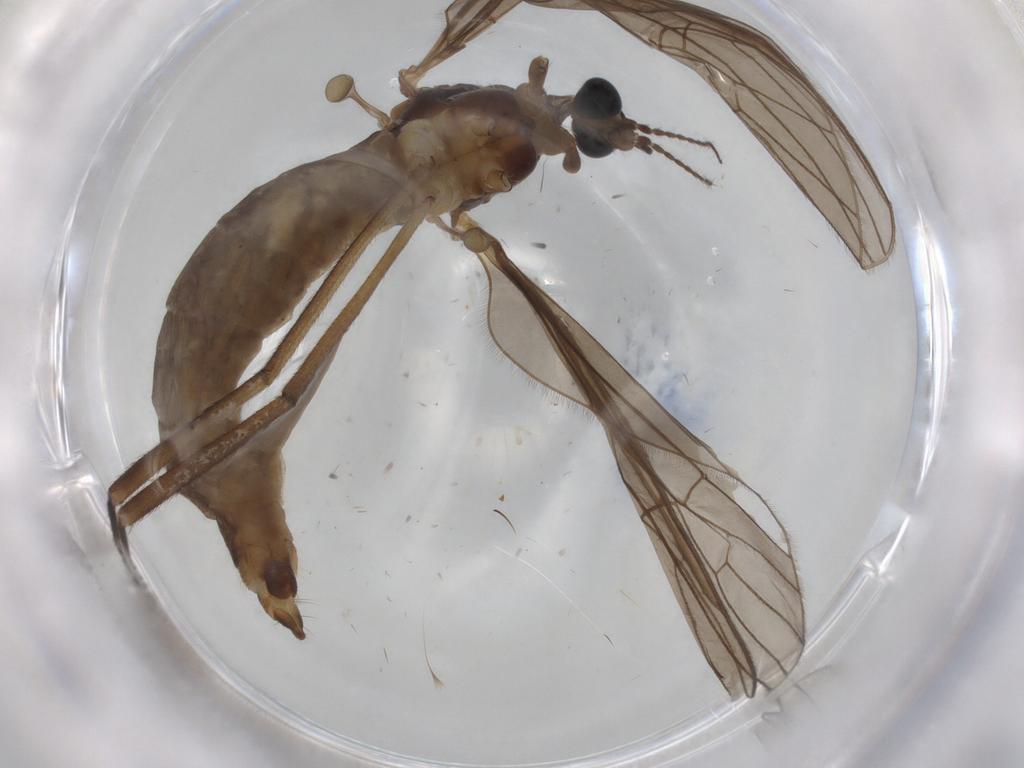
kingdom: Animalia
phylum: Arthropoda
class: Insecta
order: Diptera
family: Limoniidae
